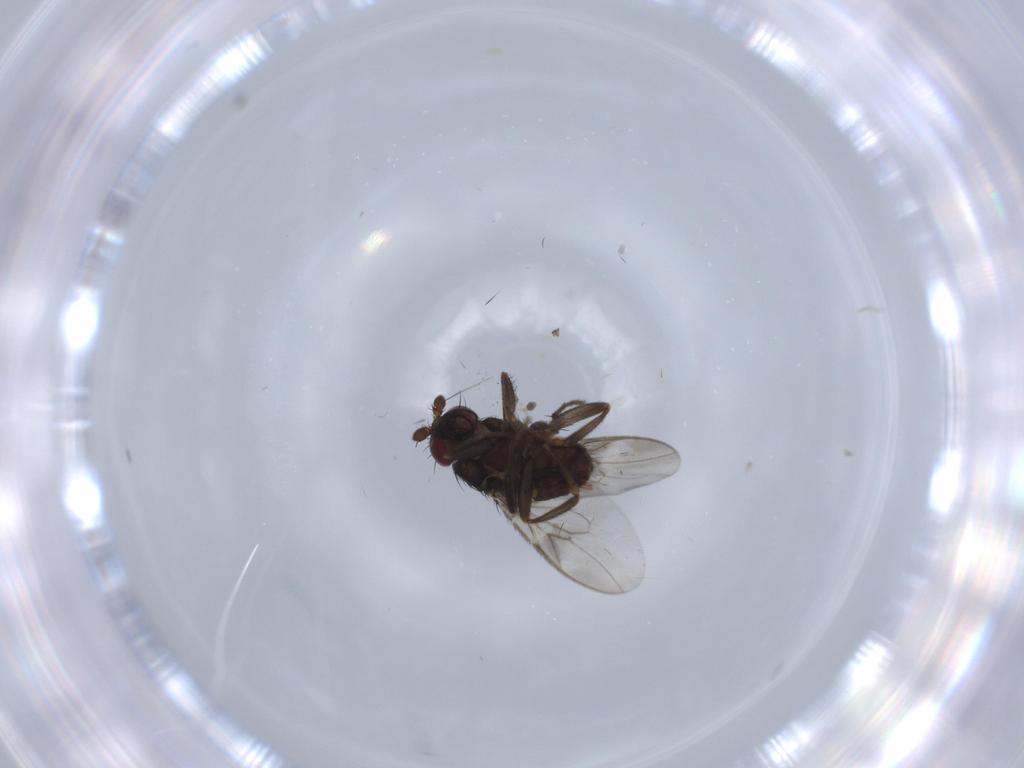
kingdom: Animalia
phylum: Arthropoda
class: Insecta
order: Diptera
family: Sphaeroceridae
